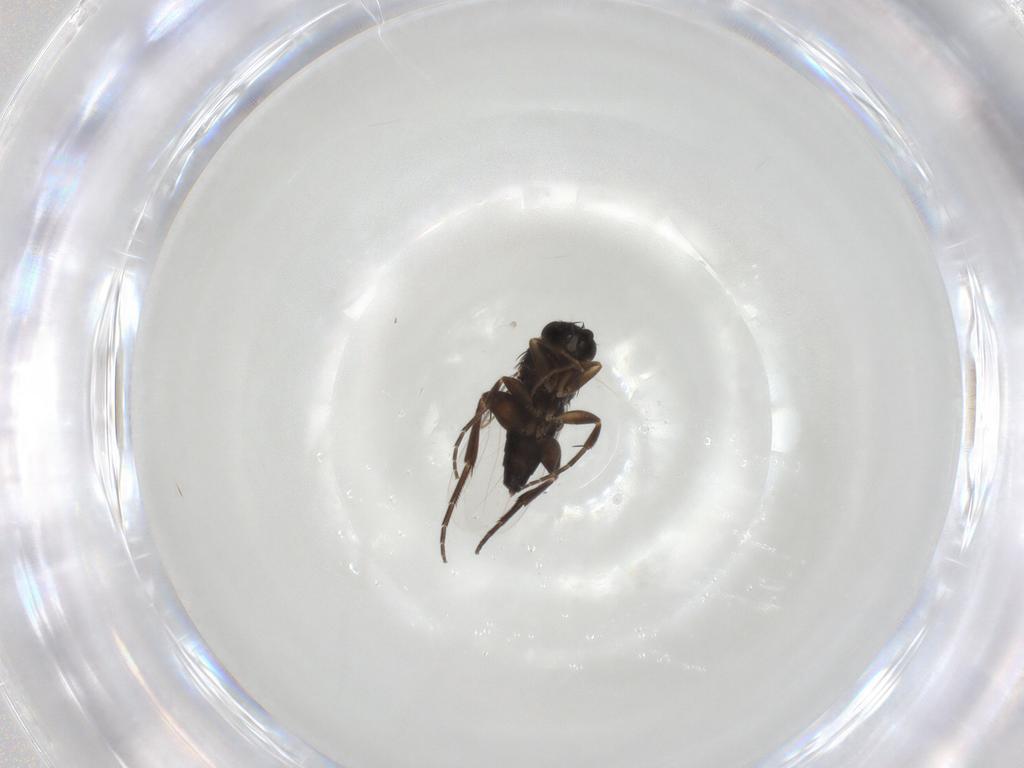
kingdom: Animalia
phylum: Arthropoda
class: Insecta
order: Diptera
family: Phoridae
